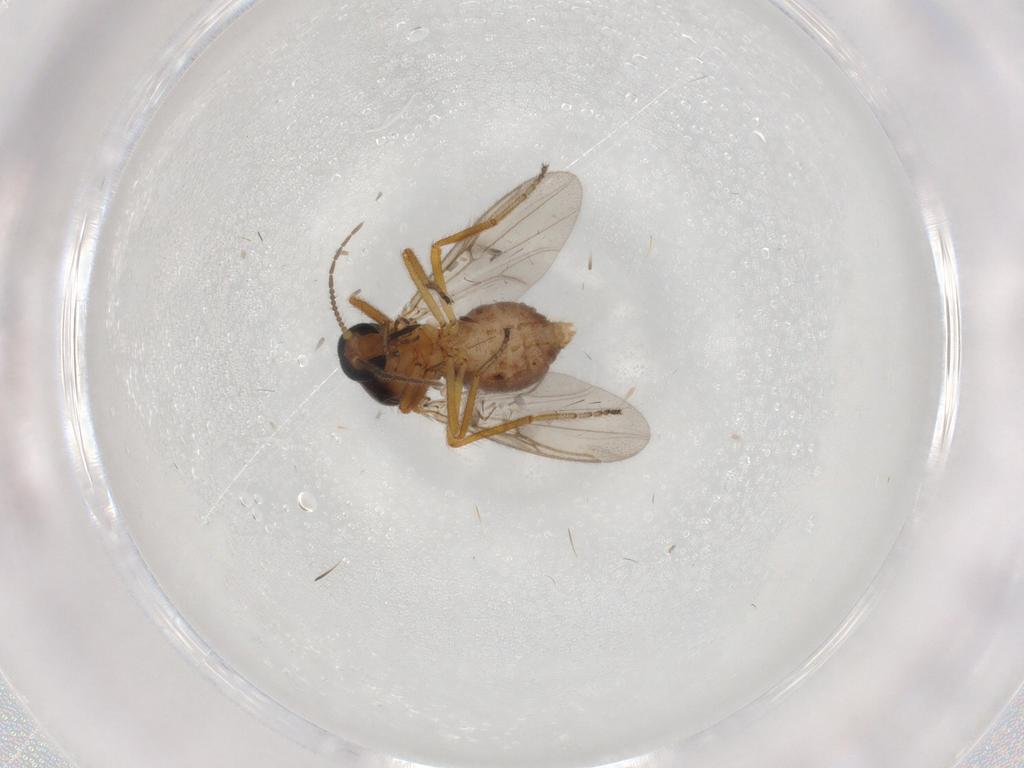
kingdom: Animalia
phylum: Arthropoda
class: Insecta
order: Diptera
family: Ceratopogonidae
